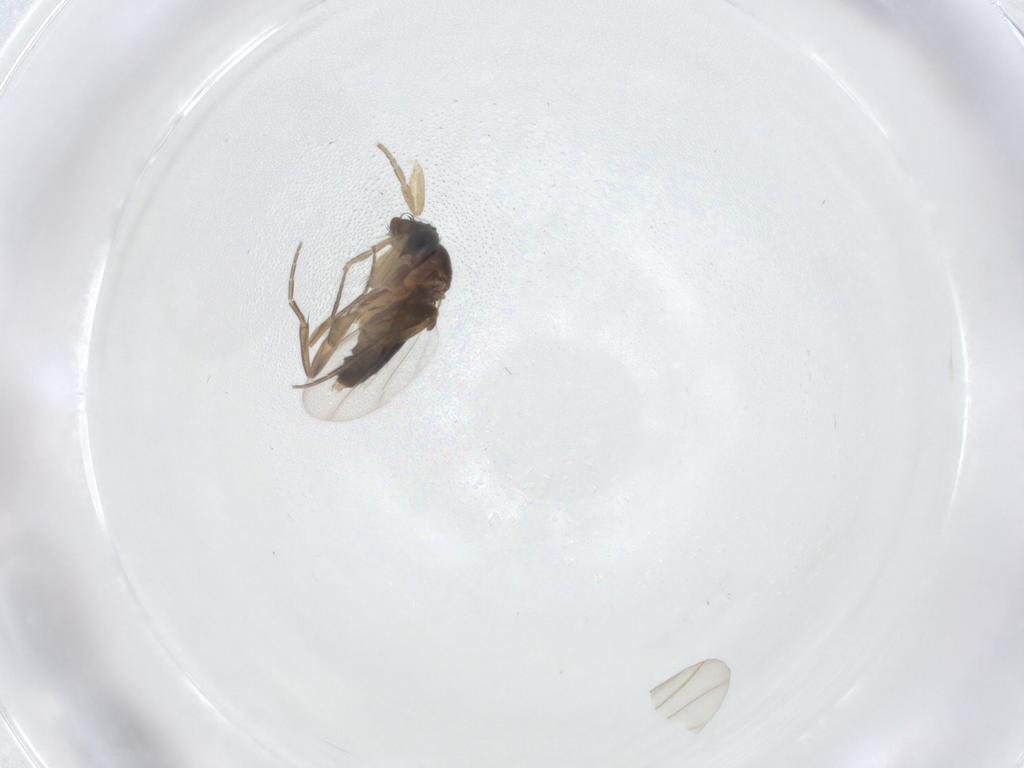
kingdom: Animalia
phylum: Arthropoda
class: Insecta
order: Diptera
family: Phoridae
